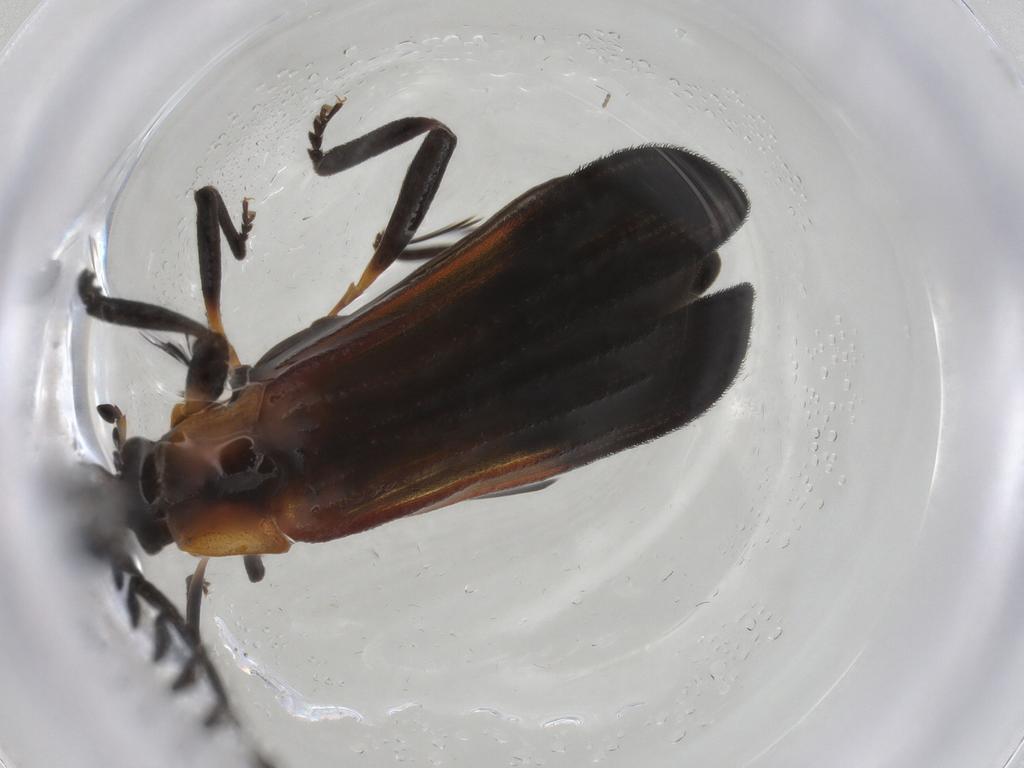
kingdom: Animalia
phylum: Arthropoda
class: Insecta
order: Coleoptera
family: Lycidae
